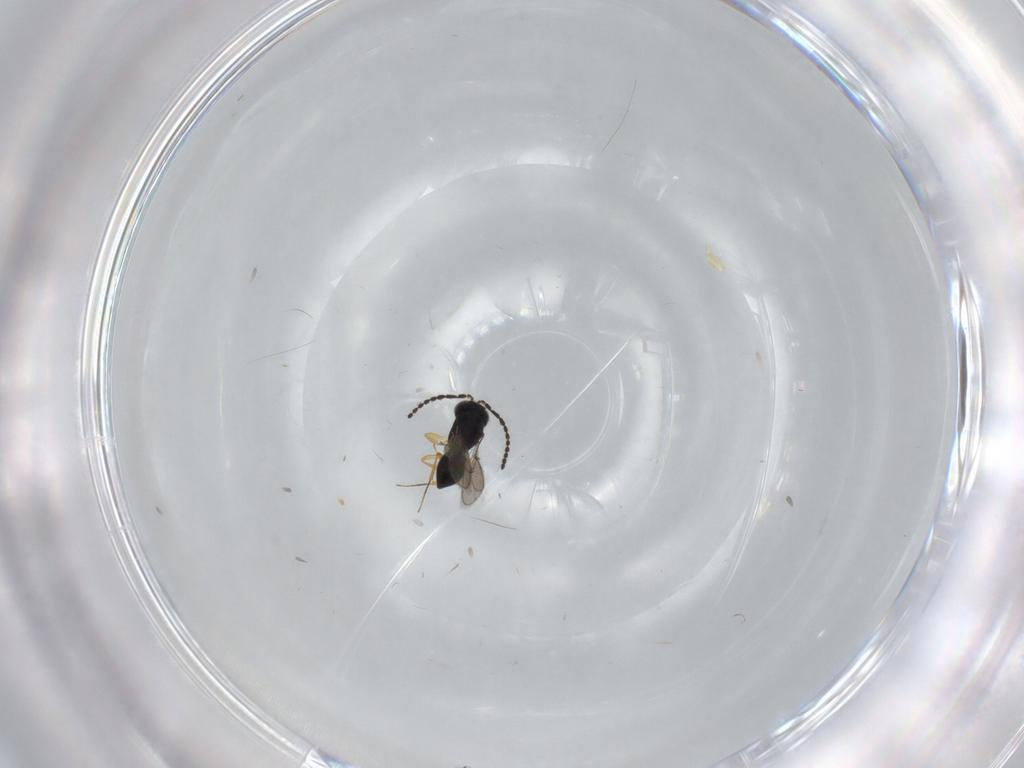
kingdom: Animalia
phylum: Arthropoda
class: Insecta
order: Hymenoptera
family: Scelionidae
